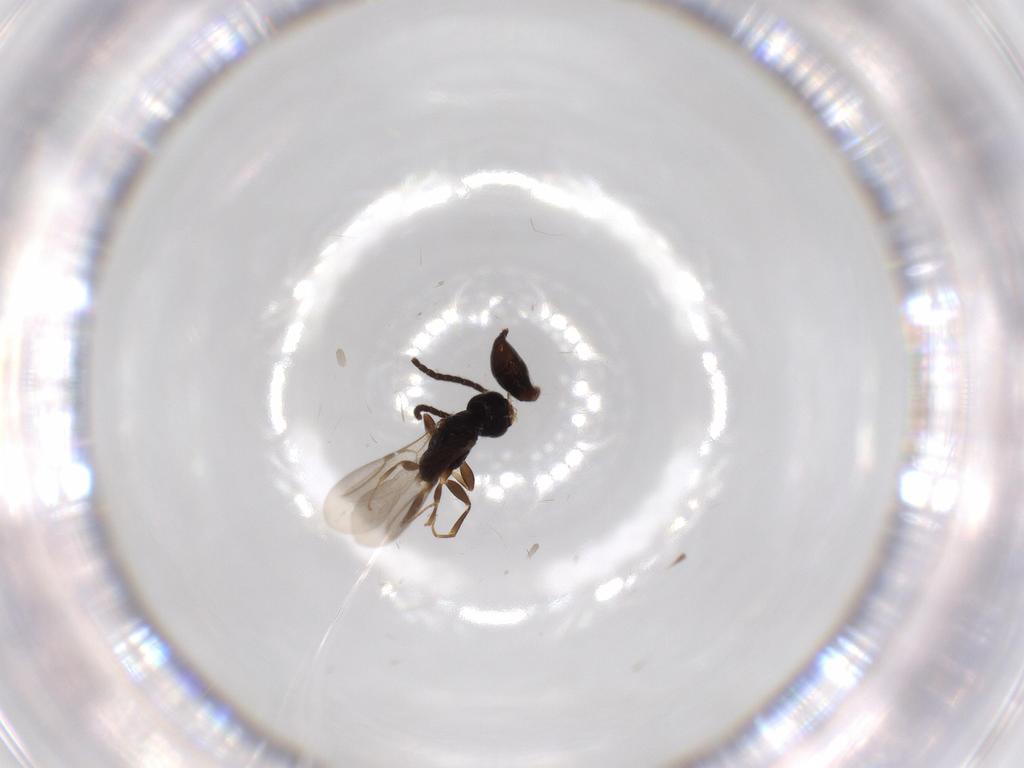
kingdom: Animalia
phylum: Arthropoda
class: Insecta
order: Hymenoptera
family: Bethylidae
